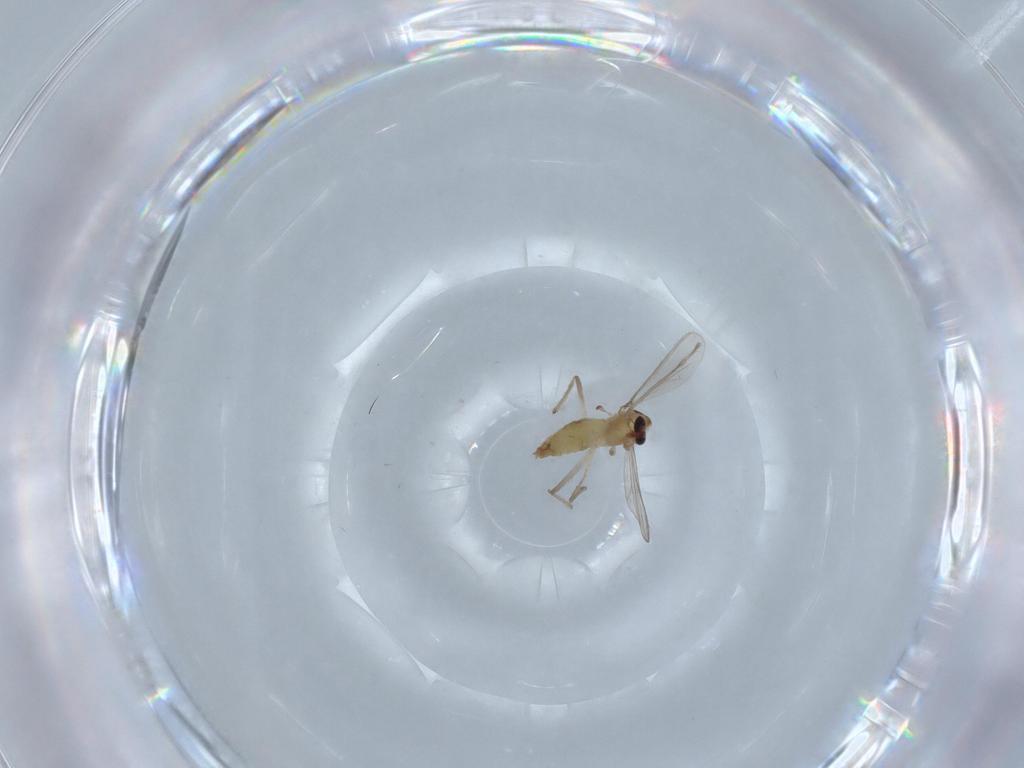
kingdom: Animalia
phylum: Arthropoda
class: Insecta
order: Diptera
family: Chironomidae
